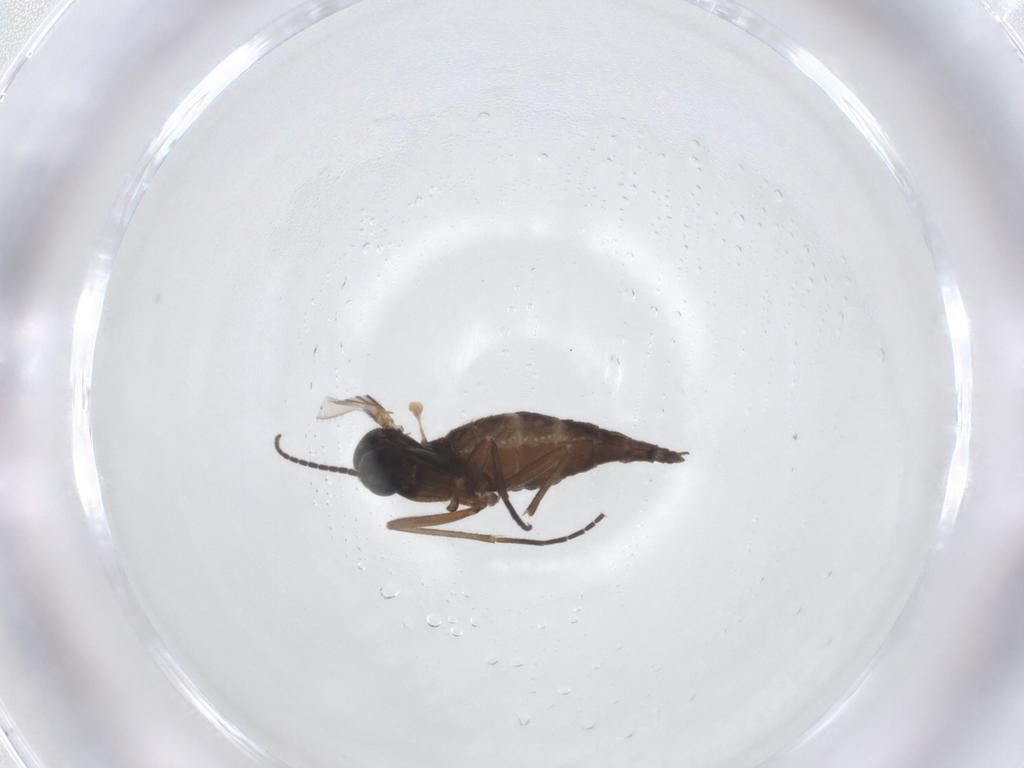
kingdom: Animalia
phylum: Arthropoda
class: Insecta
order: Diptera
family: Sciaridae
